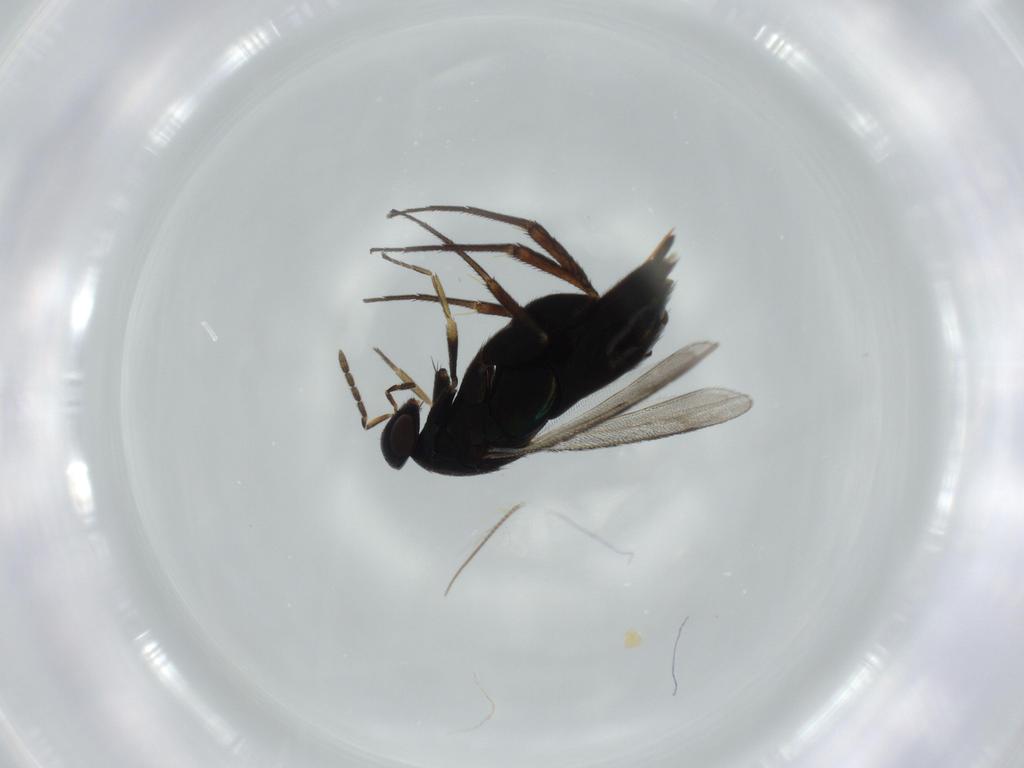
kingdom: Animalia
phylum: Arthropoda
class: Insecta
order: Hymenoptera
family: Eulophidae
